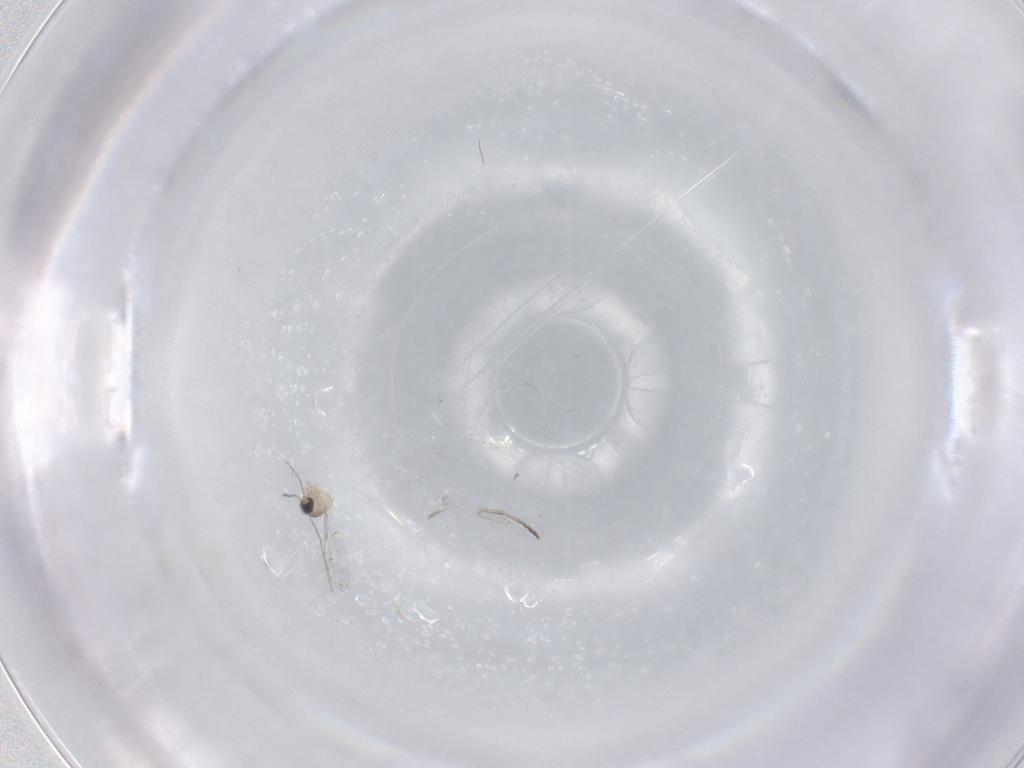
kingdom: Animalia
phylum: Arthropoda
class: Insecta
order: Diptera
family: Cecidomyiidae
